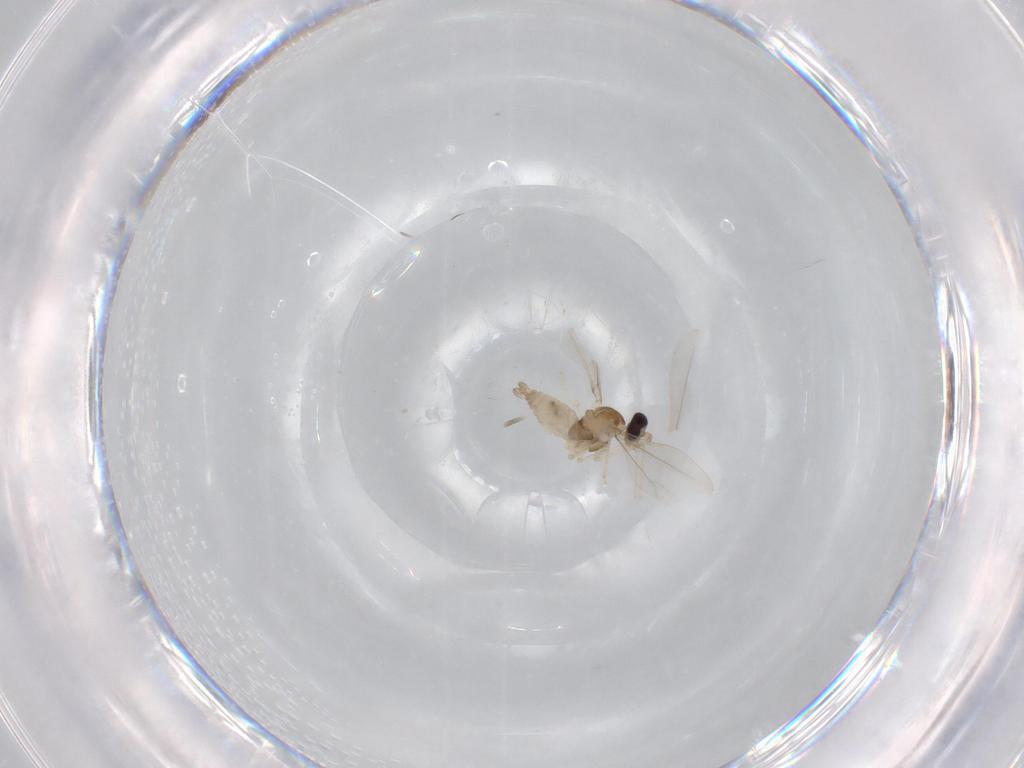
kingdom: Animalia
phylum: Arthropoda
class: Insecta
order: Diptera
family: Cecidomyiidae
